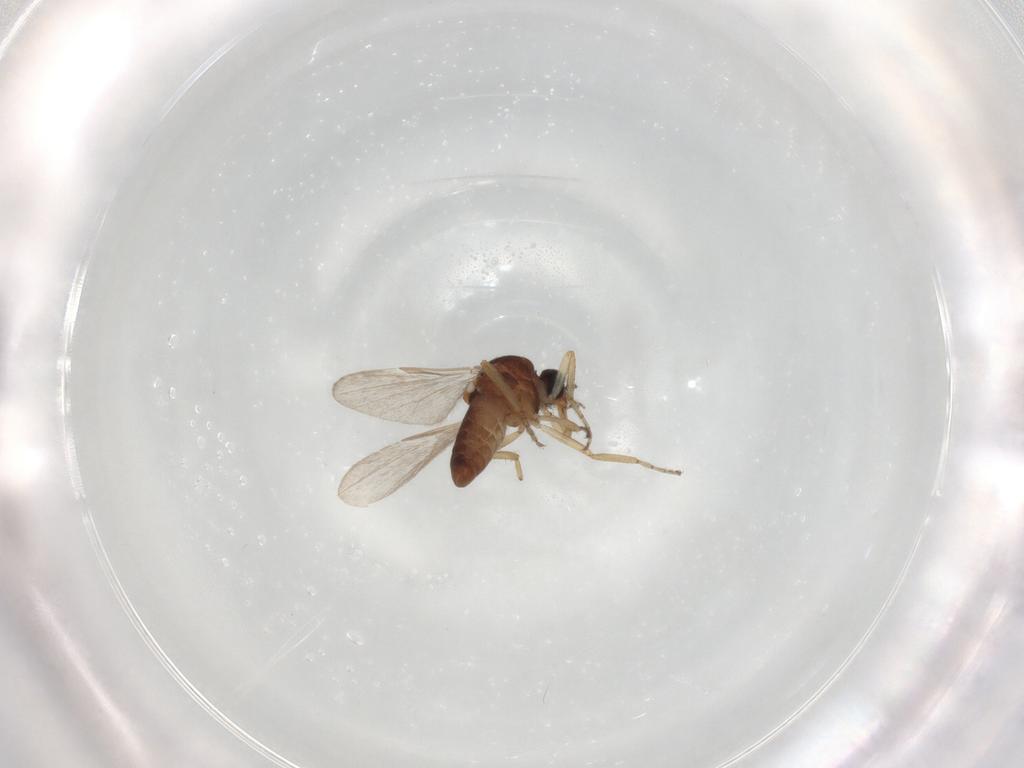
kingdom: Animalia
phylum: Arthropoda
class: Insecta
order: Diptera
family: Ceratopogonidae
